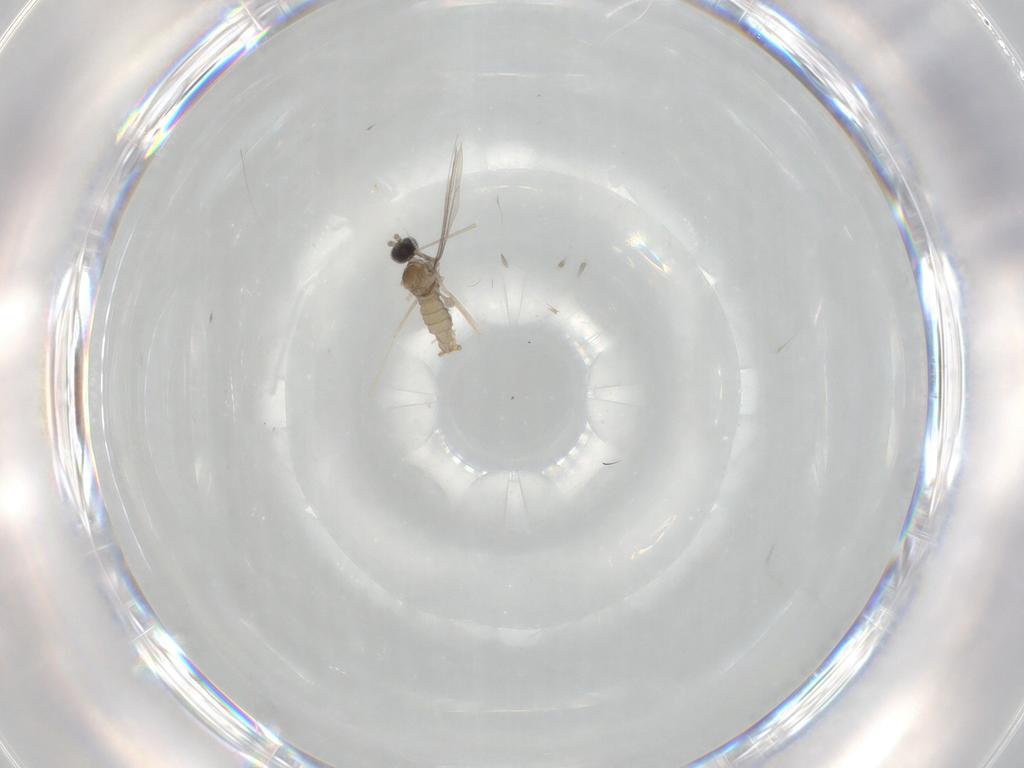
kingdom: Animalia
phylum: Arthropoda
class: Insecta
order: Diptera
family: Cecidomyiidae
